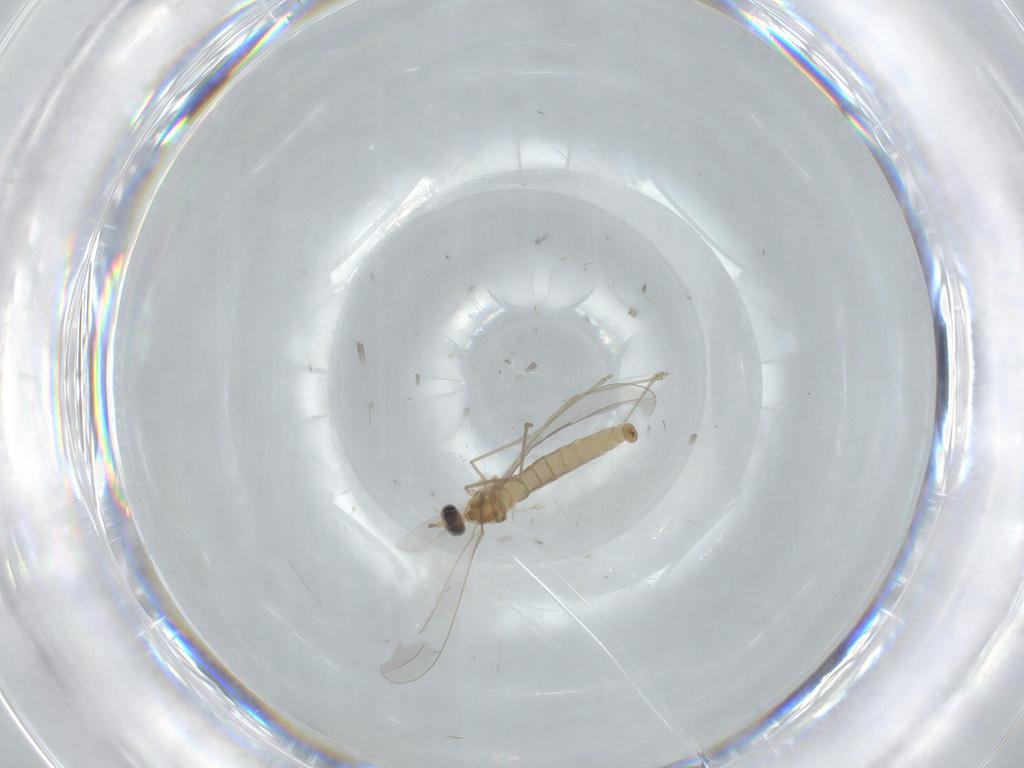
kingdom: Animalia
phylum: Arthropoda
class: Insecta
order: Diptera
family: Cecidomyiidae
